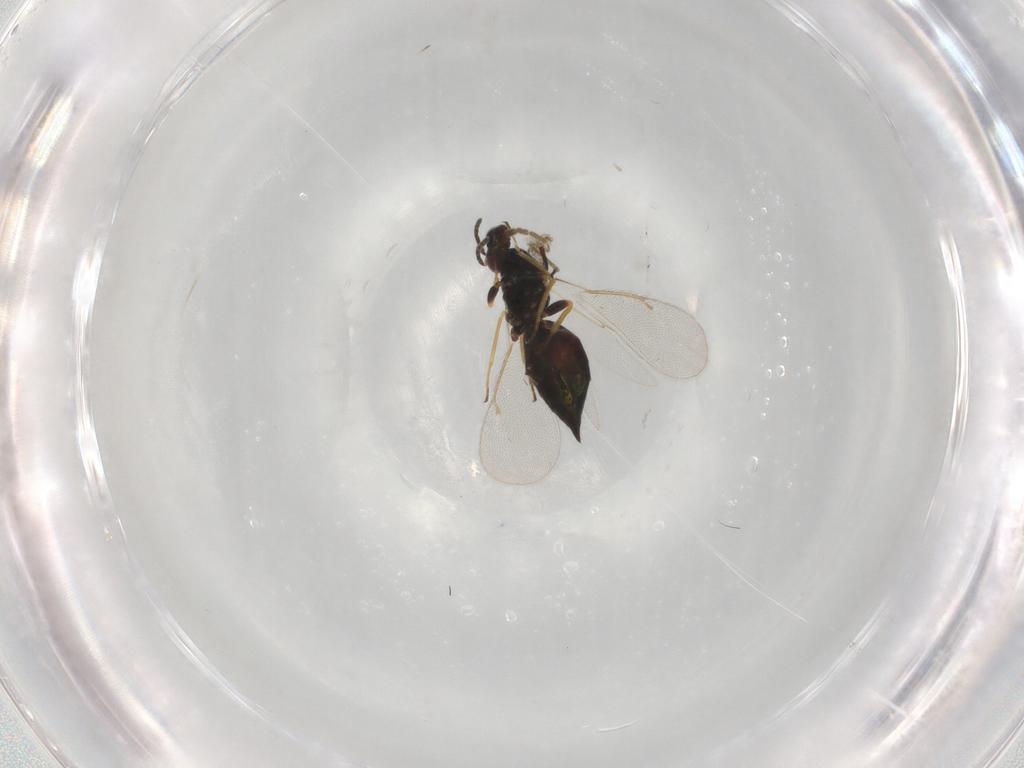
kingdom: Animalia
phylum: Arthropoda
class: Insecta
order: Hymenoptera
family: Eulophidae
